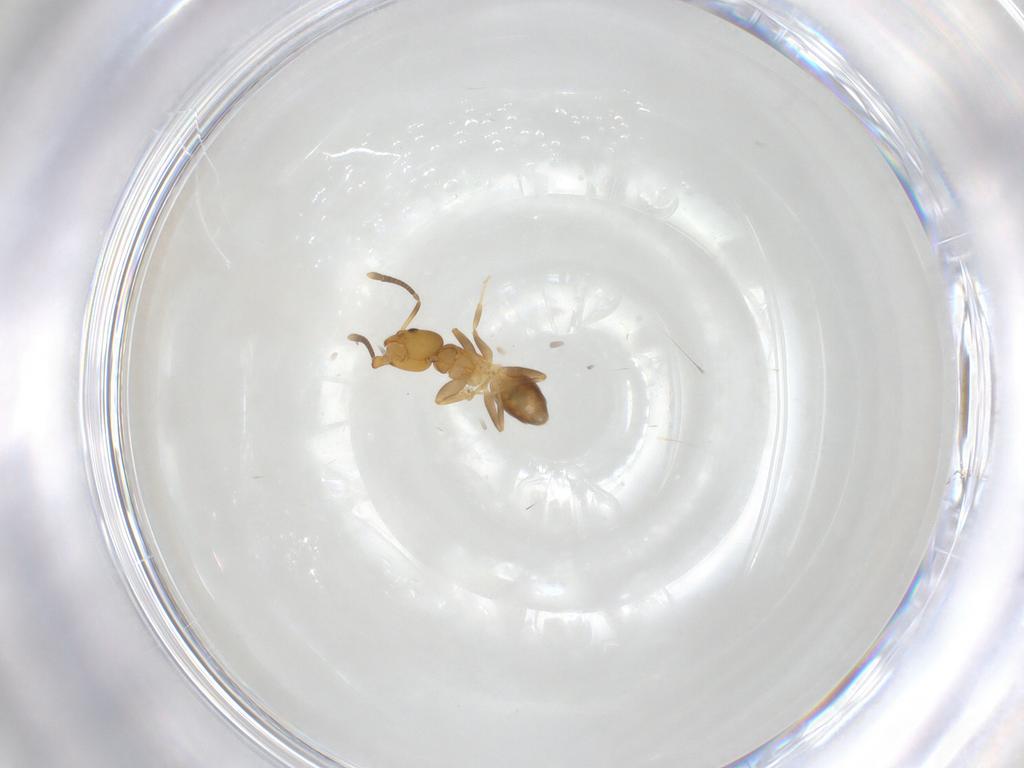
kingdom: Animalia
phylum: Arthropoda
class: Insecta
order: Hymenoptera
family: Formicidae
